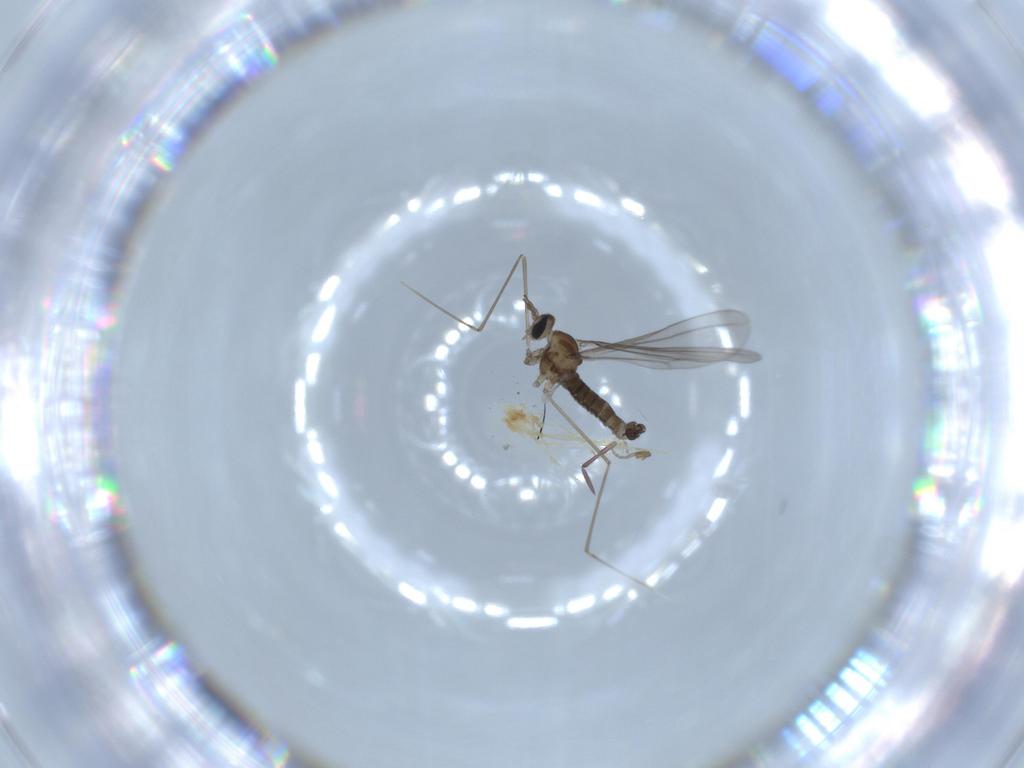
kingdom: Animalia
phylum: Arthropoda
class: Insecta
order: Diptera
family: Cecidomyiidae
